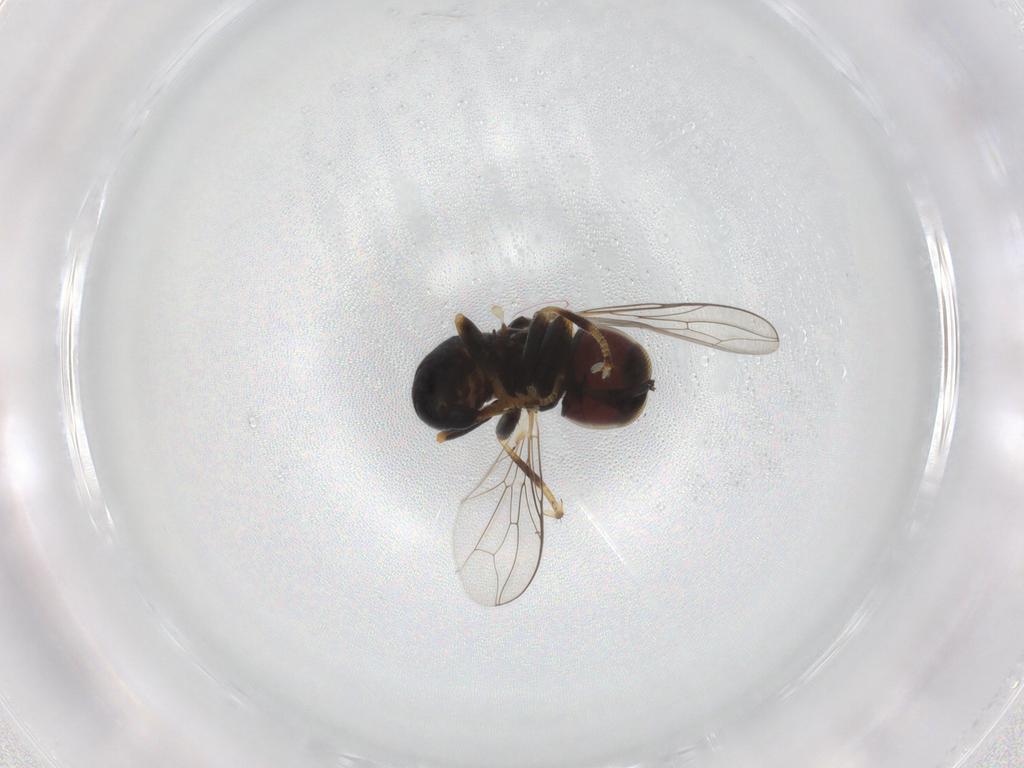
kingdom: Animalia
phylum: Arthropoda
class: Insecta
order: Diptera
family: Pipunculidae
